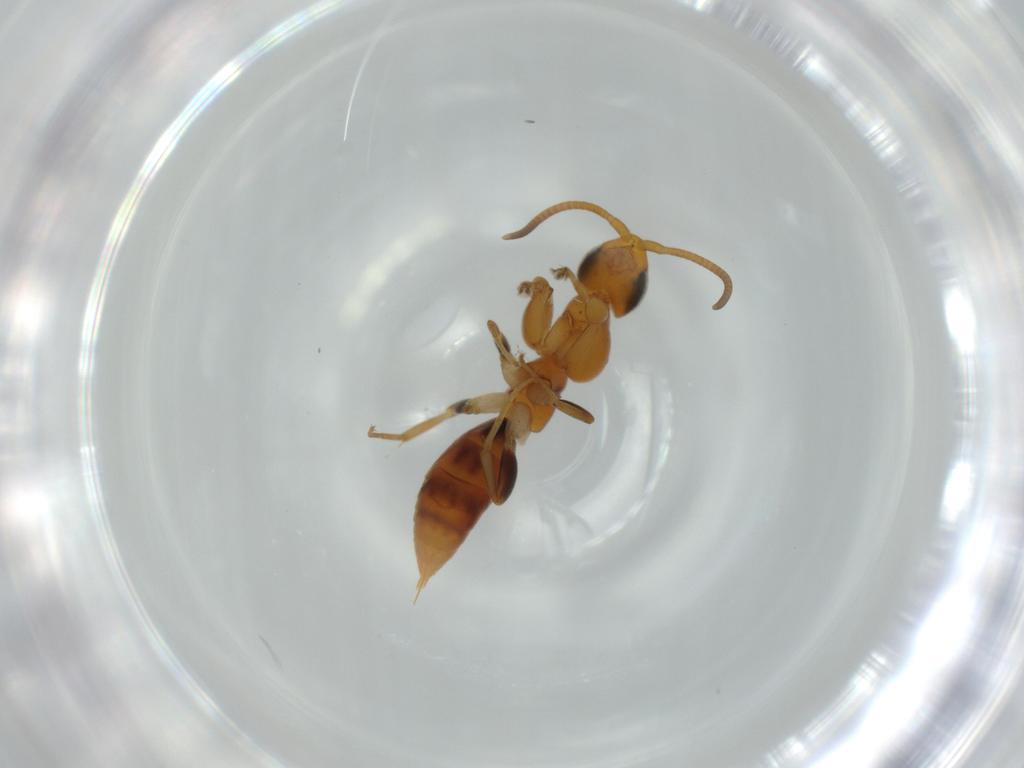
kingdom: Animalia
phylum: Arthropoda
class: Insecta
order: Hymenoptera
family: Sclerogibbidae
